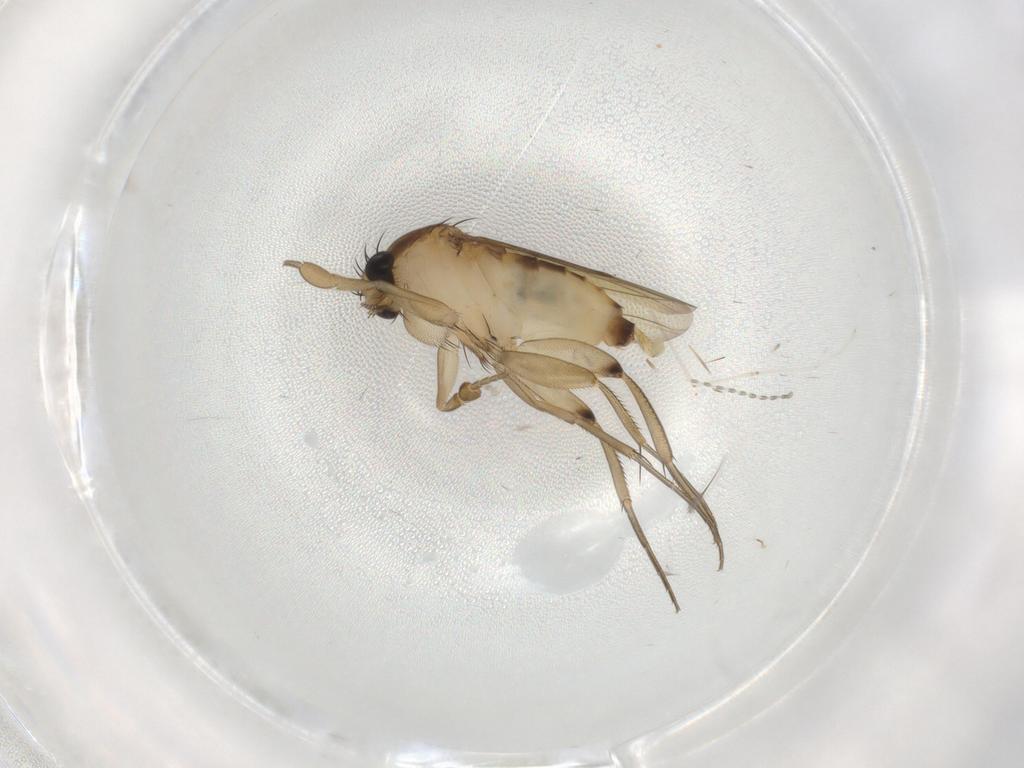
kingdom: Animalia
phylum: Arthropoda
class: Insecta
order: Diptera
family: Phoridae
